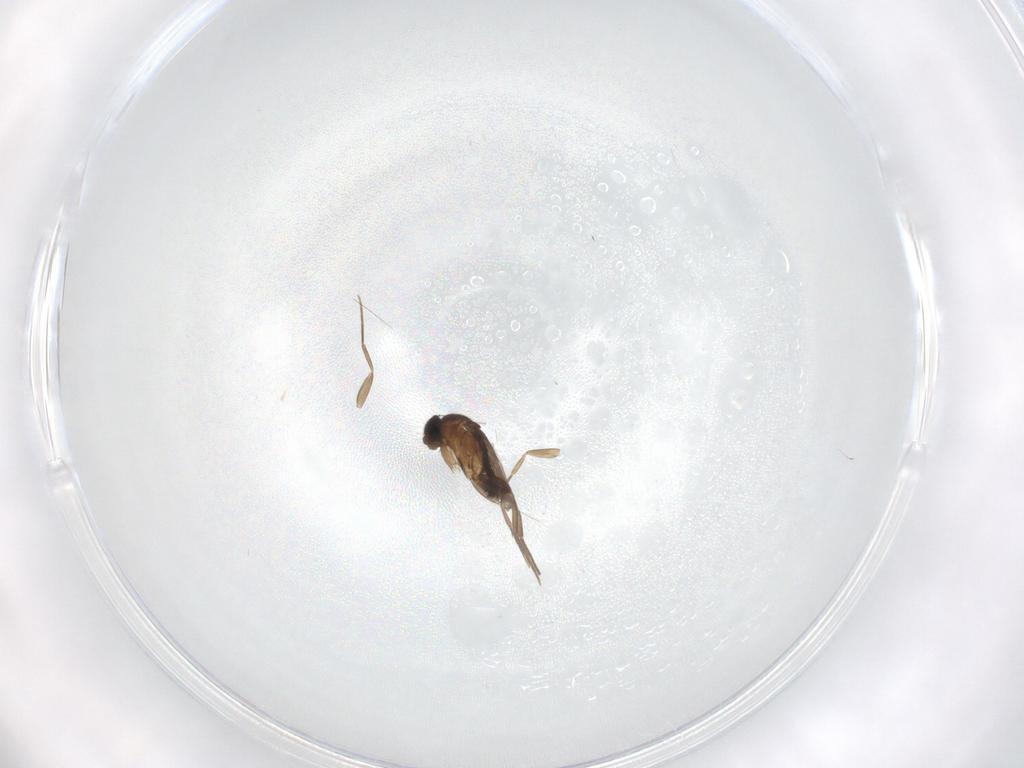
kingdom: Animalia
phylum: Arthropoda
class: Insecta
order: Diptera
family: Phoridae
